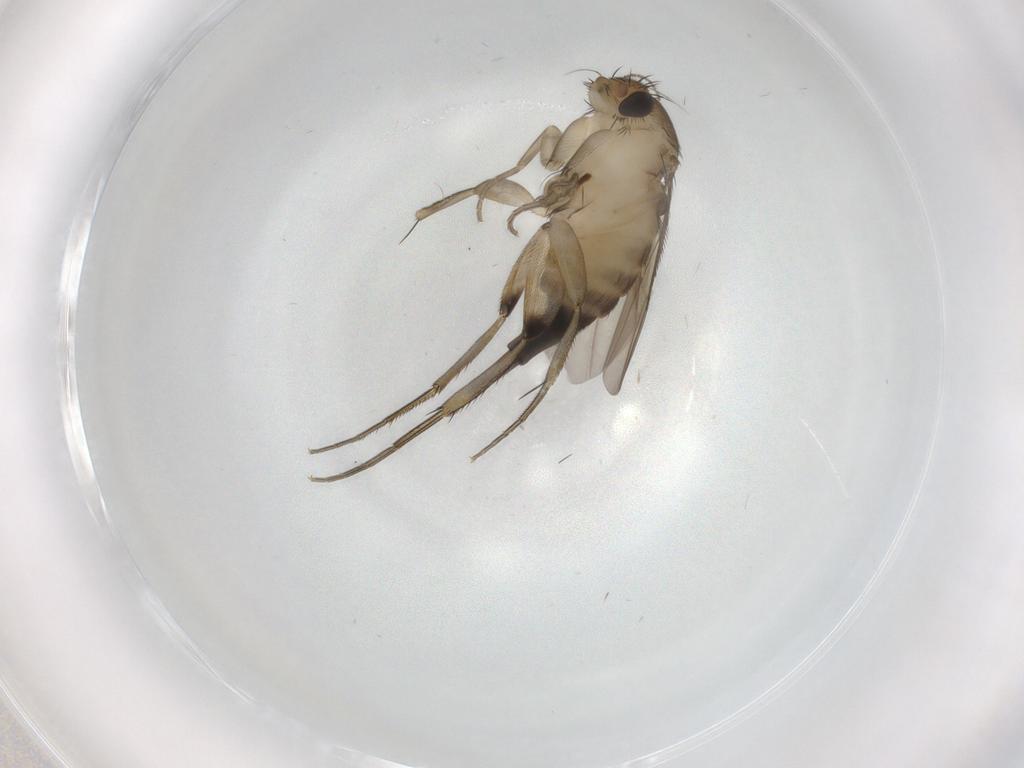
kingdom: Animalia
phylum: Arthropoda
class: Insecta
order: Diptera
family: Phoridae
